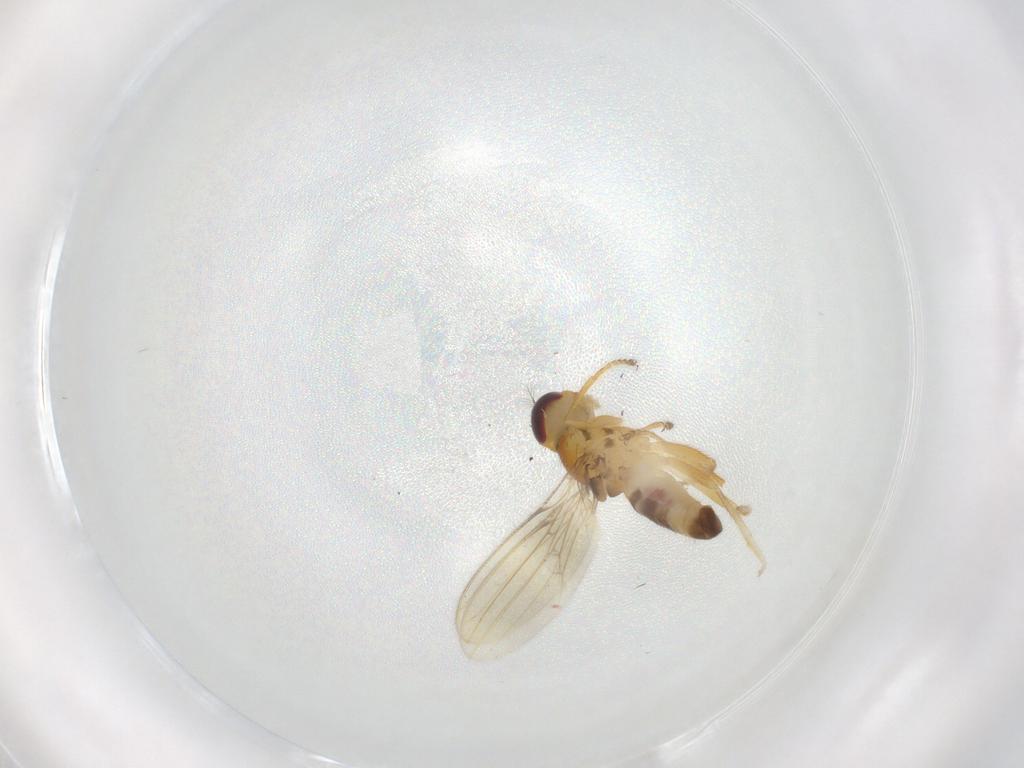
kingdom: Animalia
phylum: Arthropoda
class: Insecta
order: Diptera
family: Periscelididae
